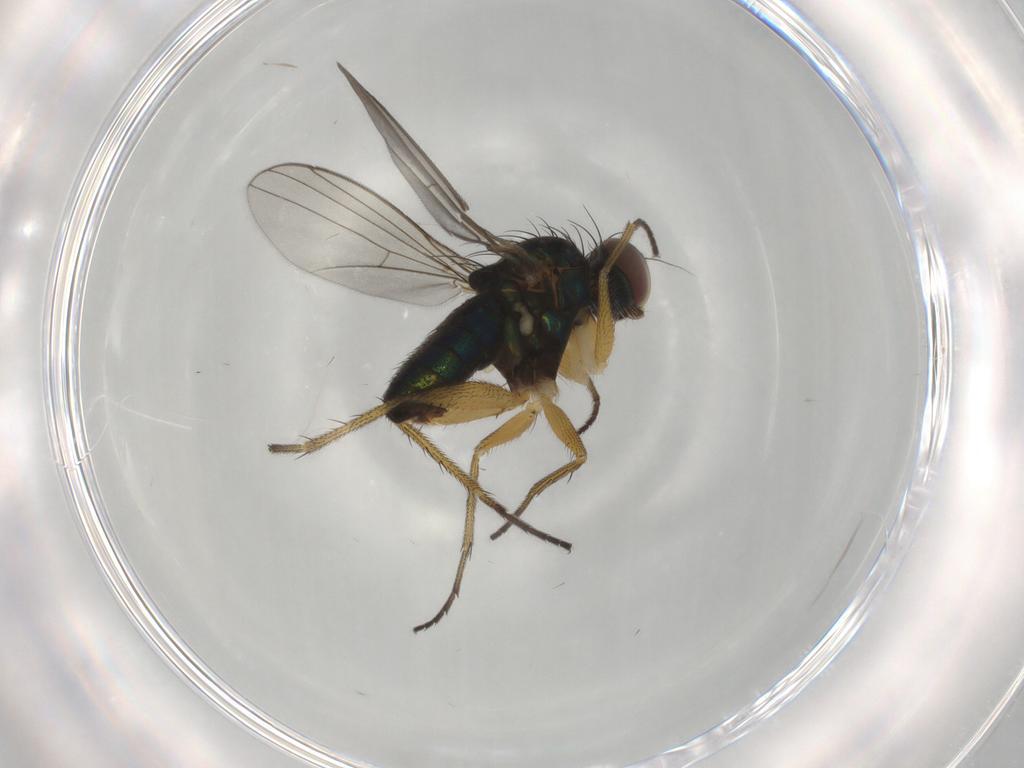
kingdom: Animalia
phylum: Arthropoda
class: Insecta
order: Diptera
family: Dolichopodidae
